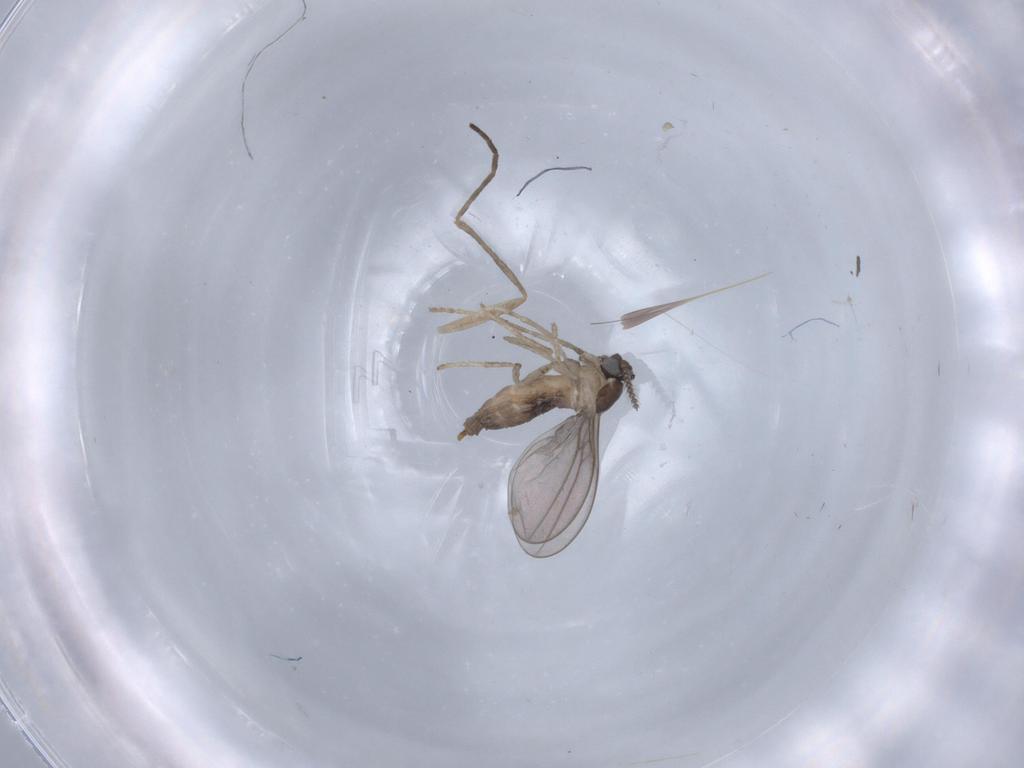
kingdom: Animalia
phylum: Arthropoda
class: Insecta
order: Diptera
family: Cecidomyiidae
